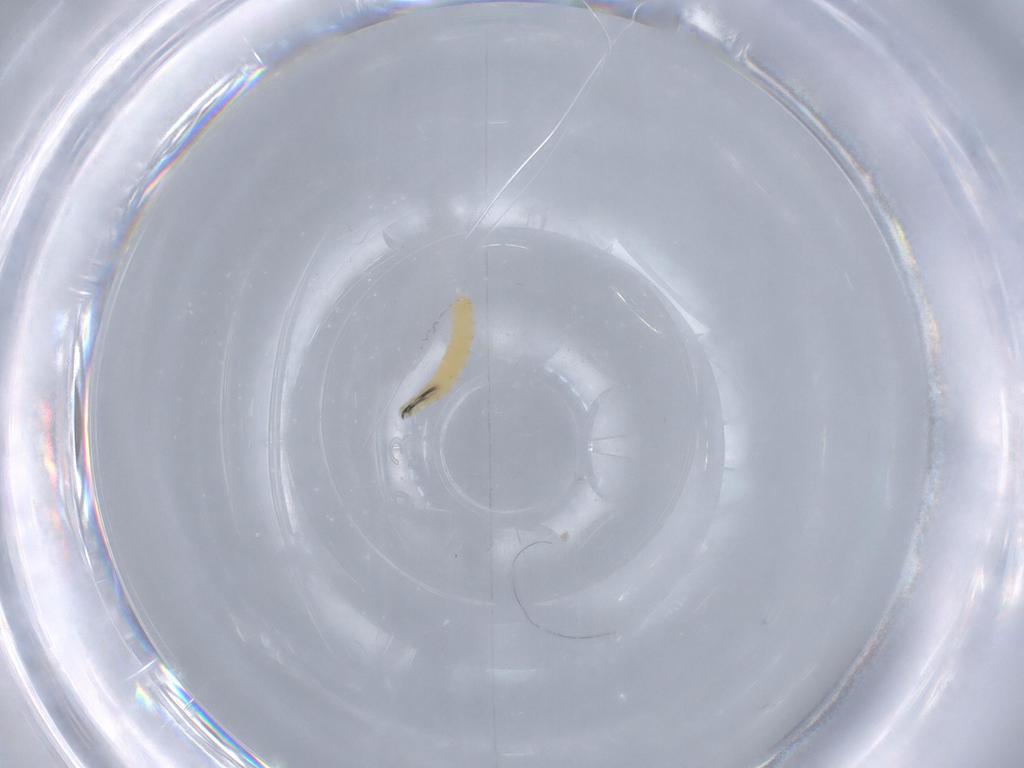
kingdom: Animalia
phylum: Arthropoda
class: Insecta
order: Diptera
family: Sarcophagidae
